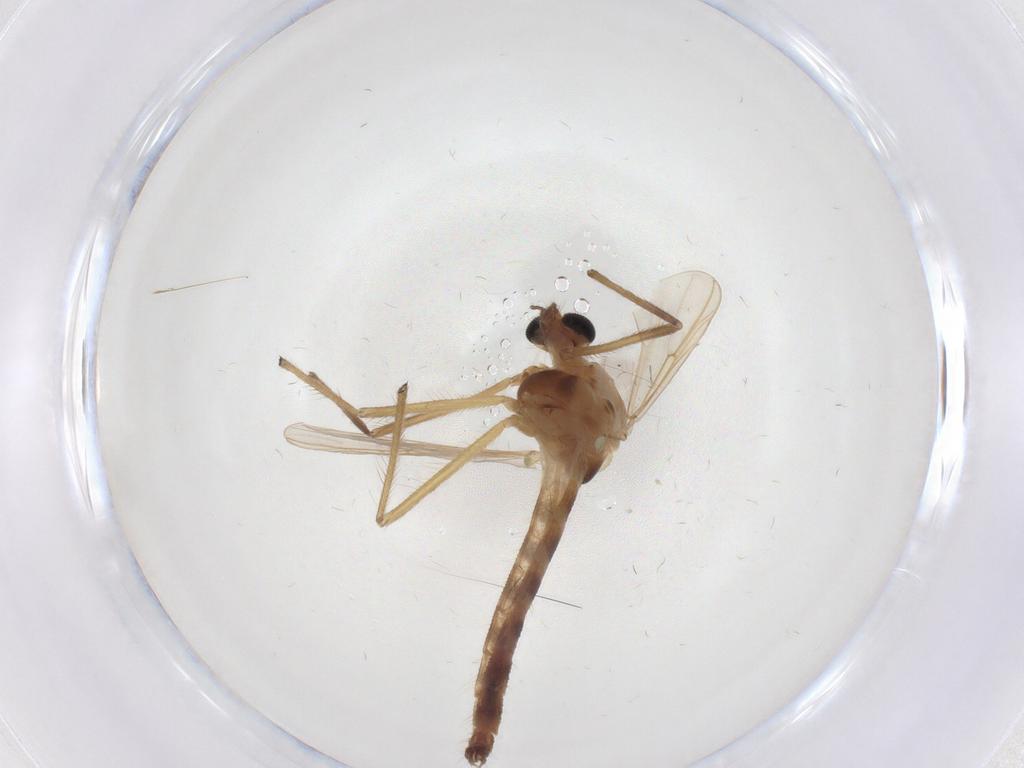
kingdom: Animalia
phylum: Arthropoda
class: Insecta
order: Diptera
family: Chironomidae
